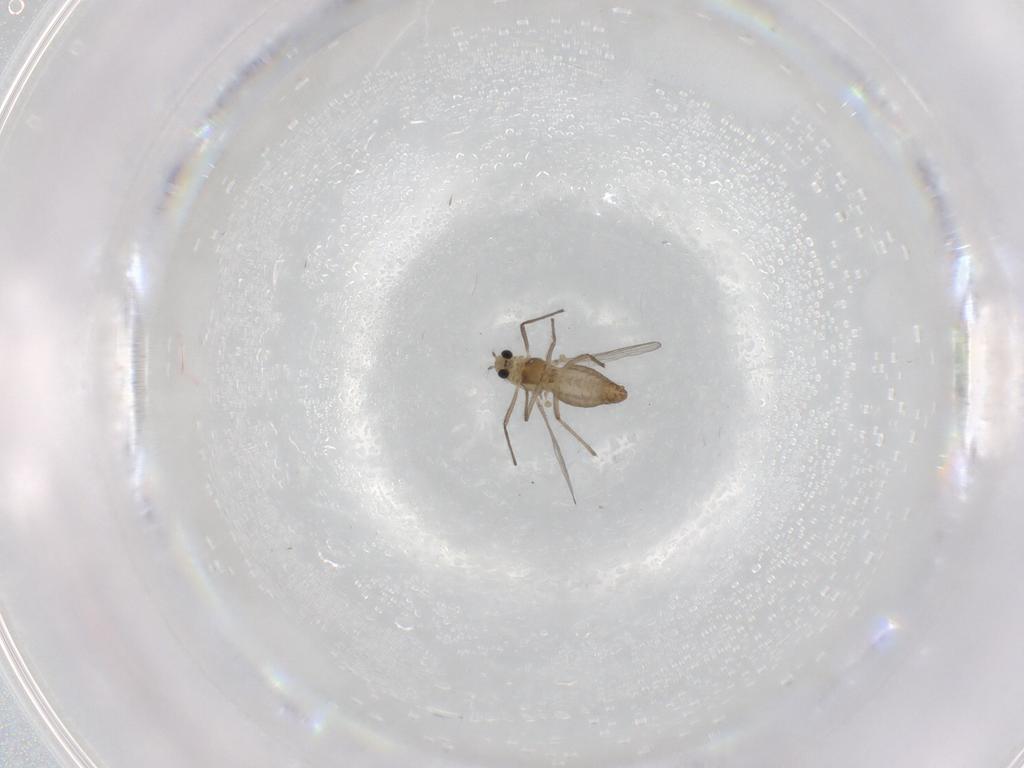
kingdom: Animalia
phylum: Arthropoda
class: Insecta
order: Diptera
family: Chironomidae
